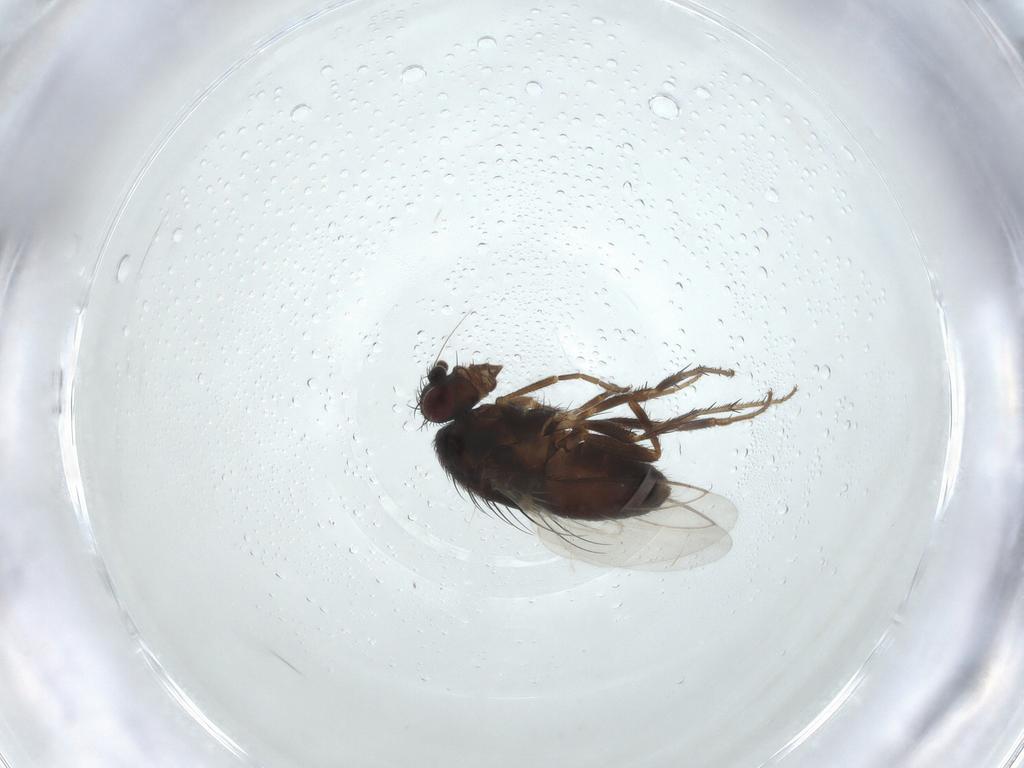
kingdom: Animalia
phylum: Arthropoda
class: Insecta
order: Diptera
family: Sphaeroceridae
